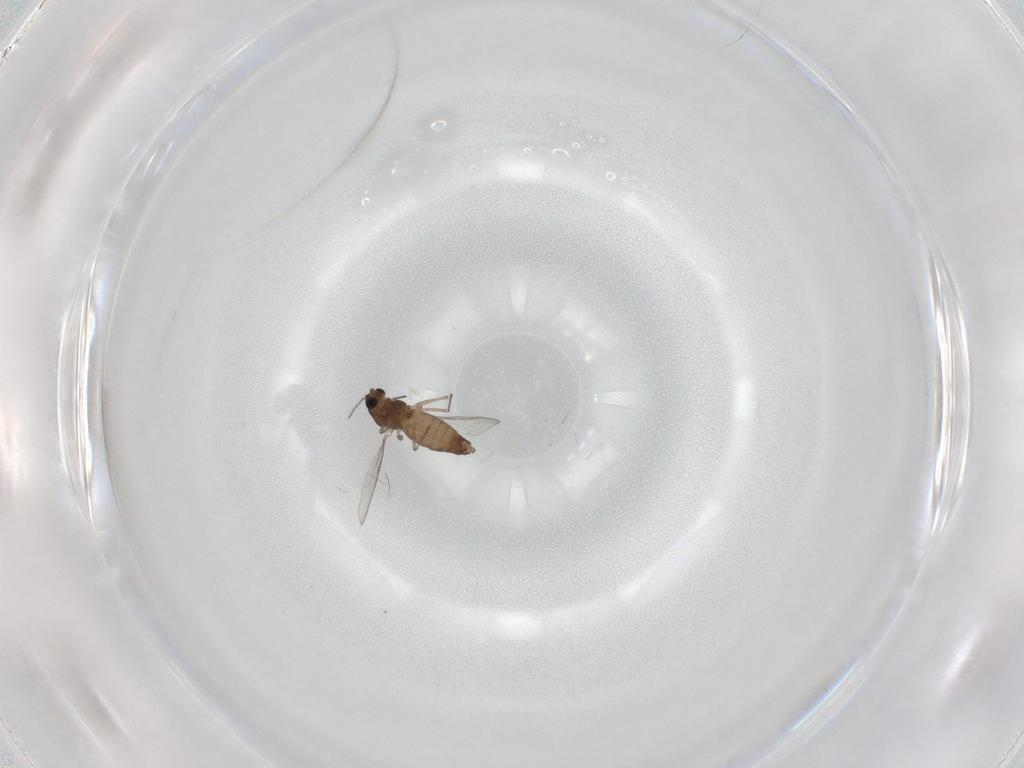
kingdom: Animalia
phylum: Arthropoda
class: Insecta
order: Diptera
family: Chironomidae
